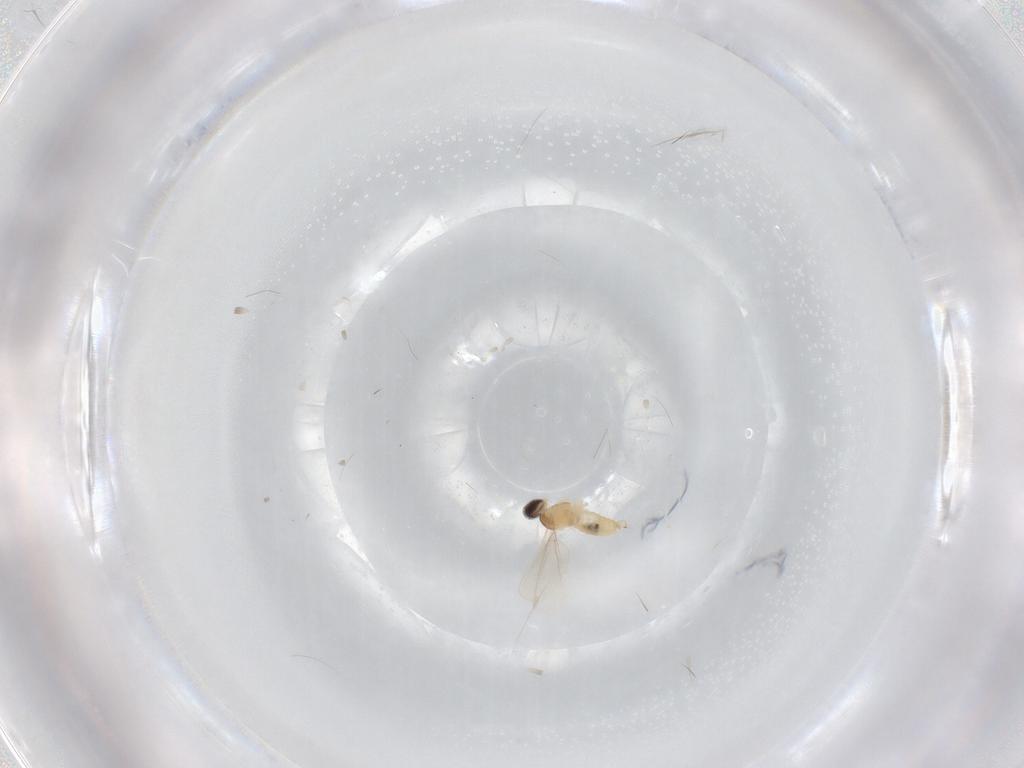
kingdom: Animalia
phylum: Arthropoda
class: Insecta
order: Diptera
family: Cecidomyiidae
